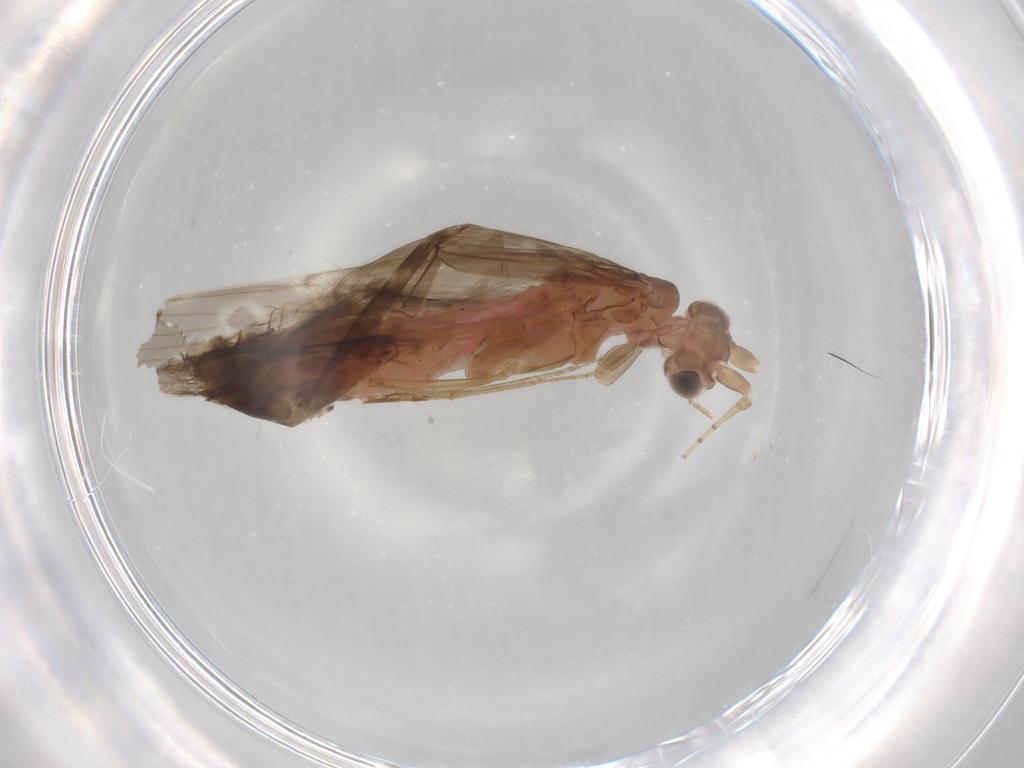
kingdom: Animalia
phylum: Arthropoda
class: Insecta
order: Trichoptera
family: Leptoceridae
